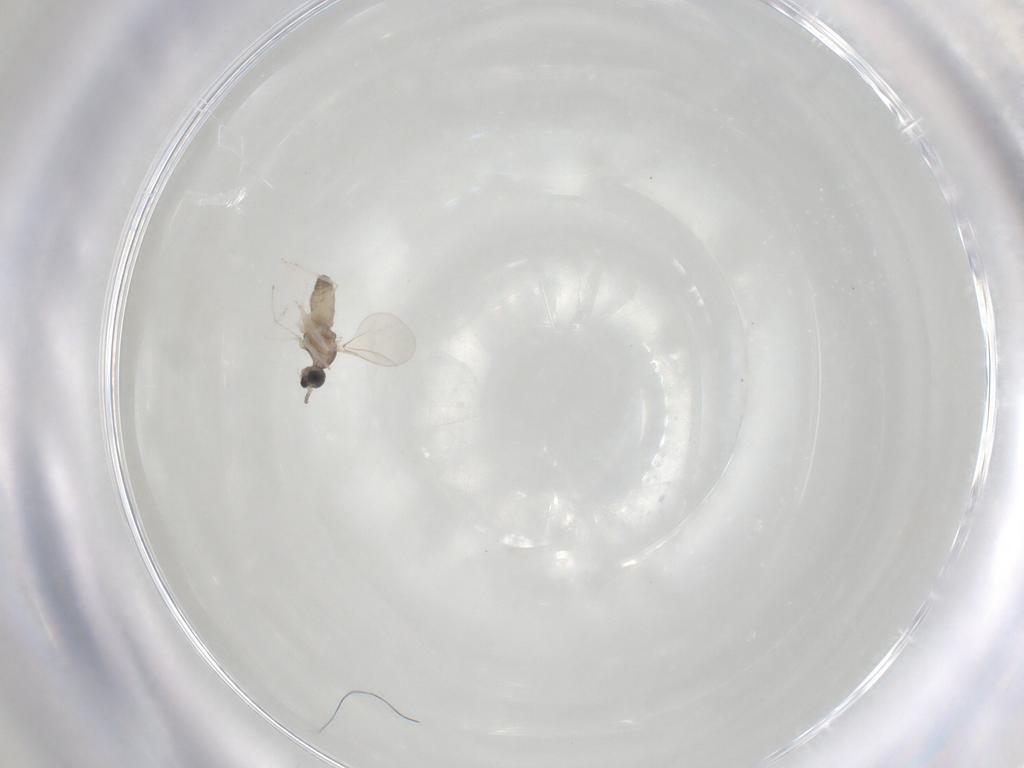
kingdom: Animalia
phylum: Arthropoda
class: Insecta
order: Diptera
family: Cecidomyiidae
